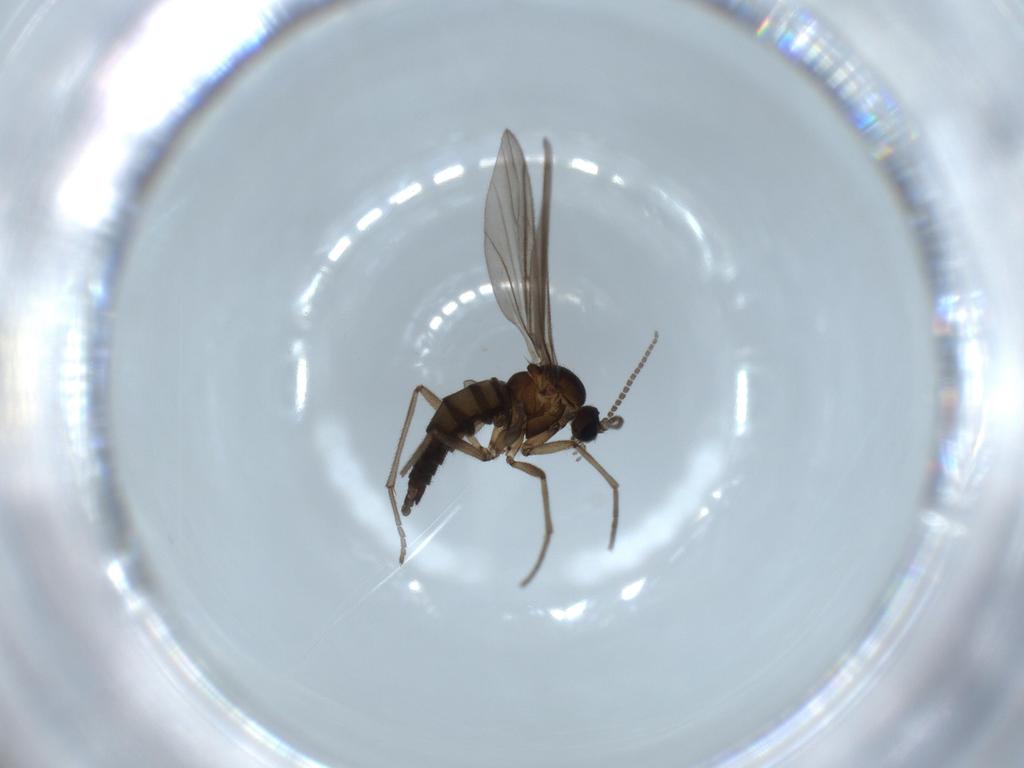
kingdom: Animalia
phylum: Arthropoda
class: Insecta
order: Diptera
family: Sciaridae
